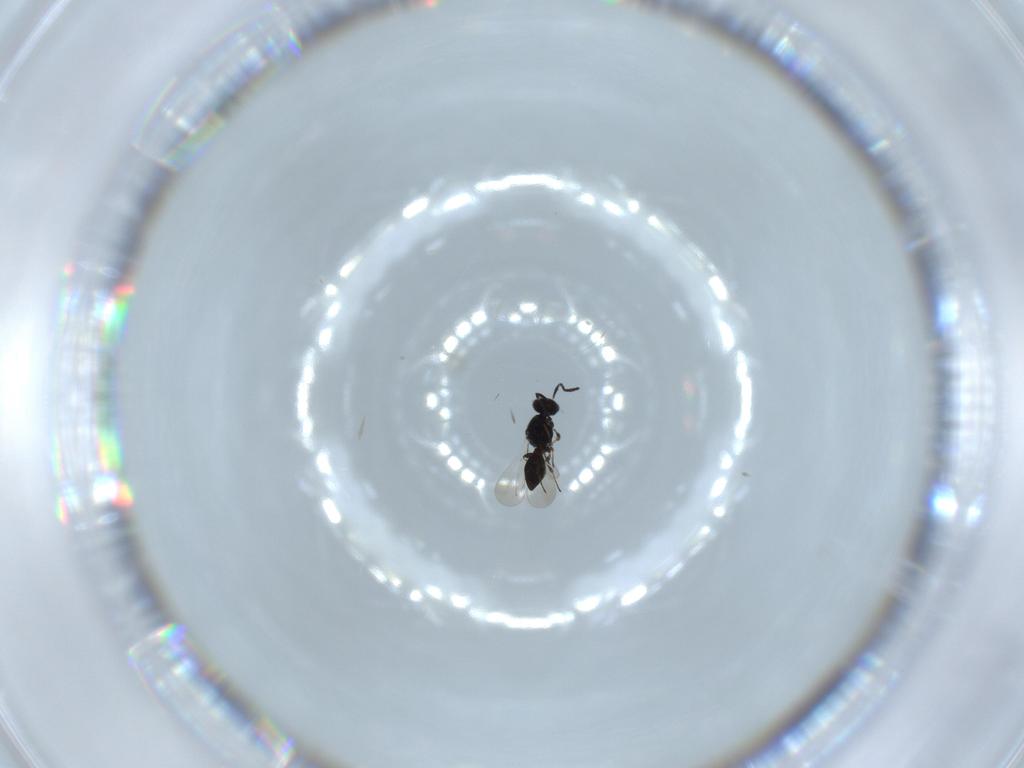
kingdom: Animalia
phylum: Arthropoda
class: Insecta
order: Hymenoptera
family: Platygastridae
